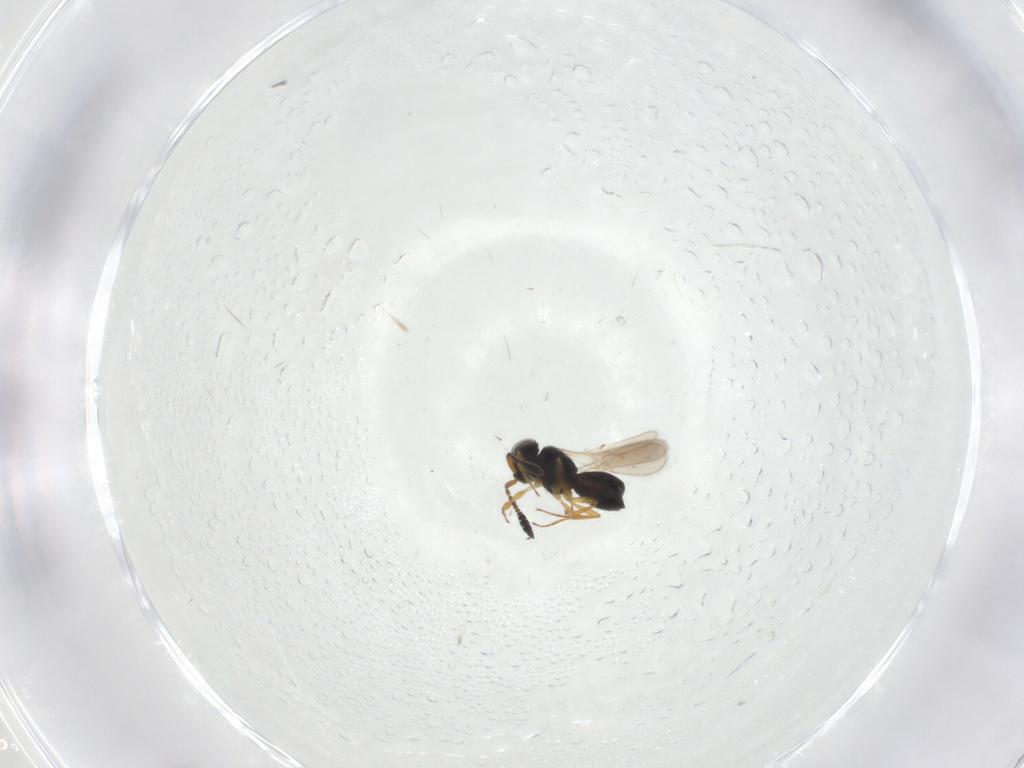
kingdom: Animalia
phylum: Arthropoda
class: Insecta
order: Hymenoptera
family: Scelionidae
